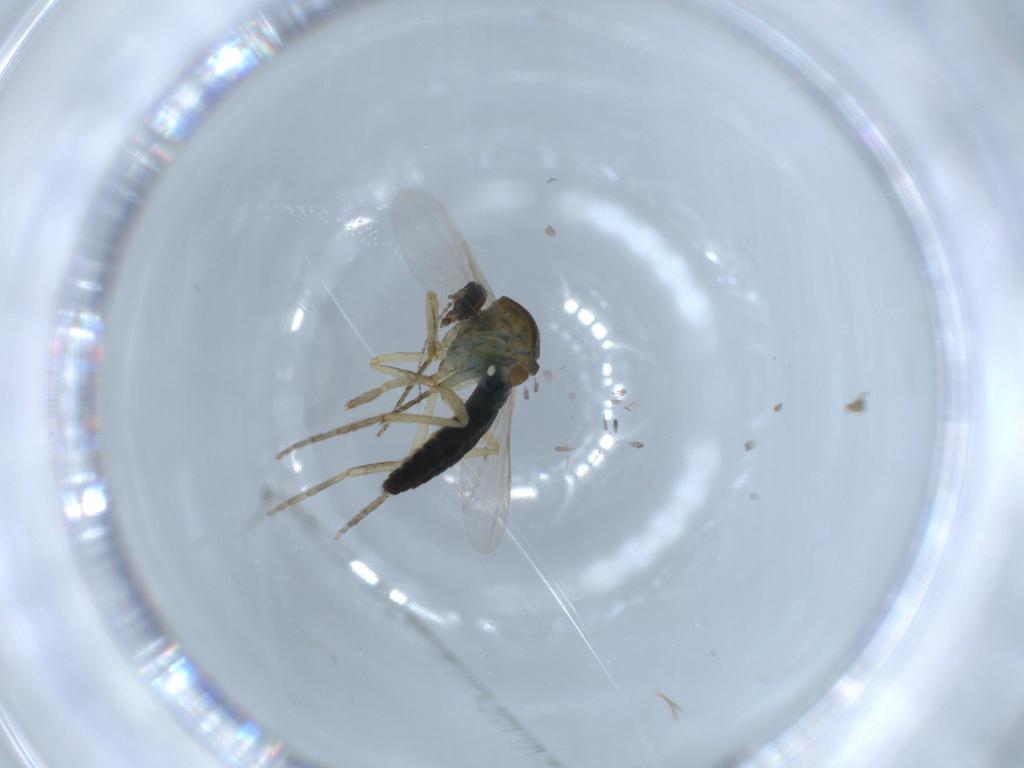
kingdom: Animalia
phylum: Arthropoda
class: Insecta
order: Diptera
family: Ceratopogonidae
